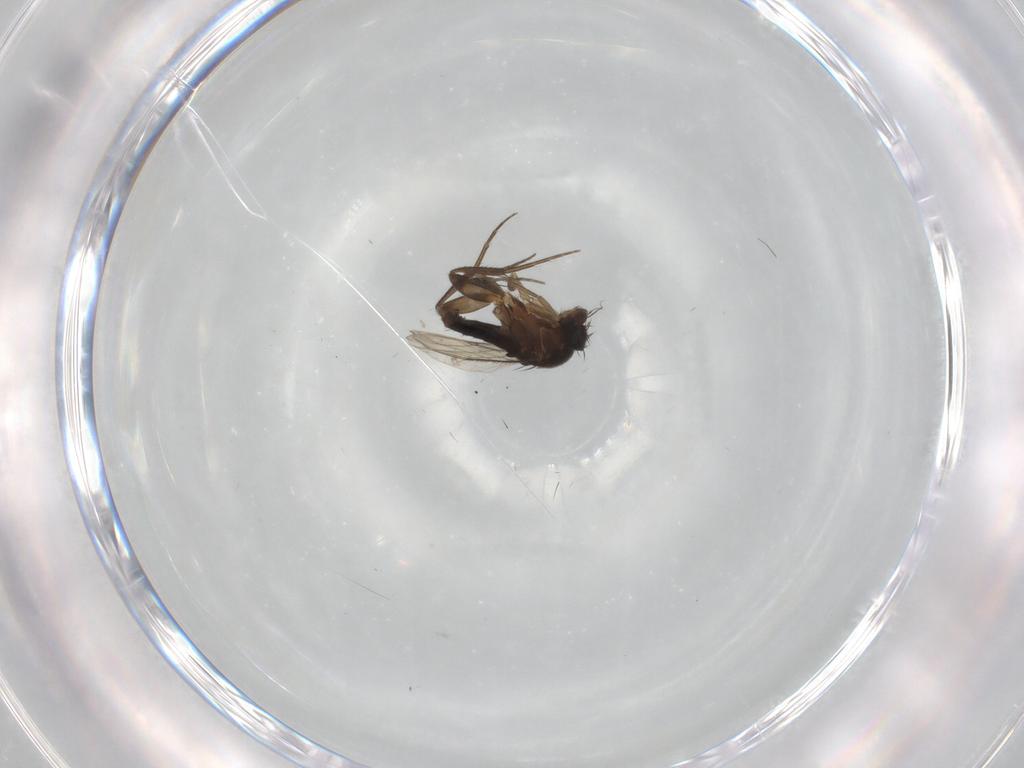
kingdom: Animalia
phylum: Arthropoda
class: Insecta
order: Diptera
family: Phoridae
